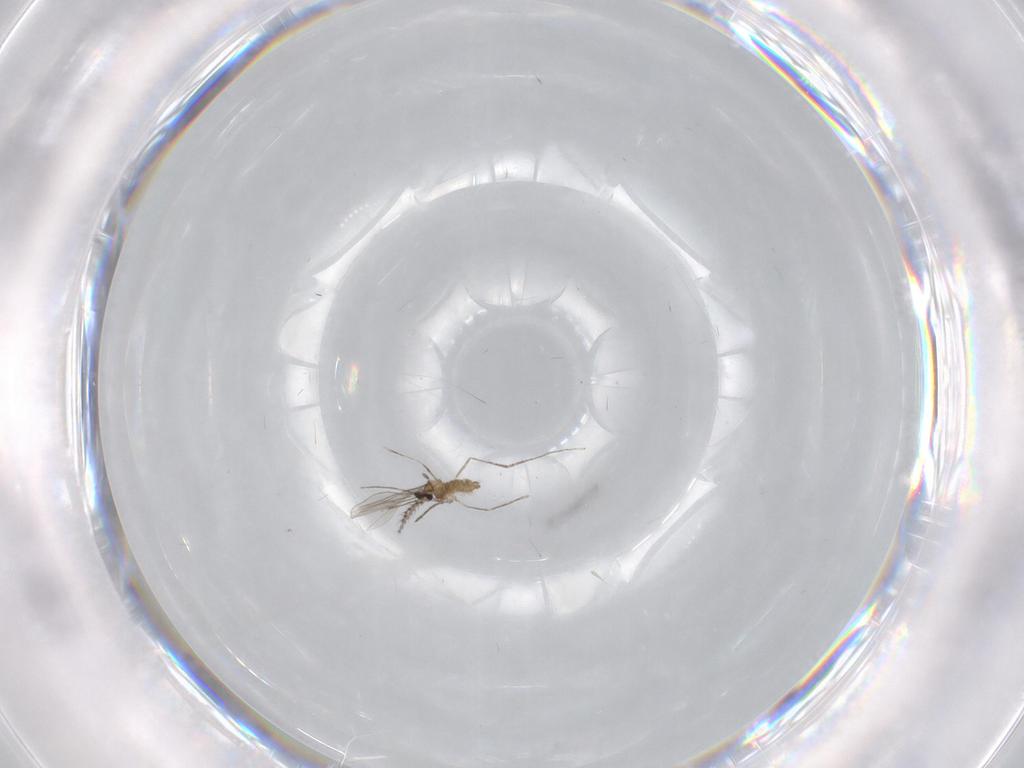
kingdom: Animalia
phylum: Arthropoda
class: Insecta
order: Diptera
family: Cecidomyiidae
